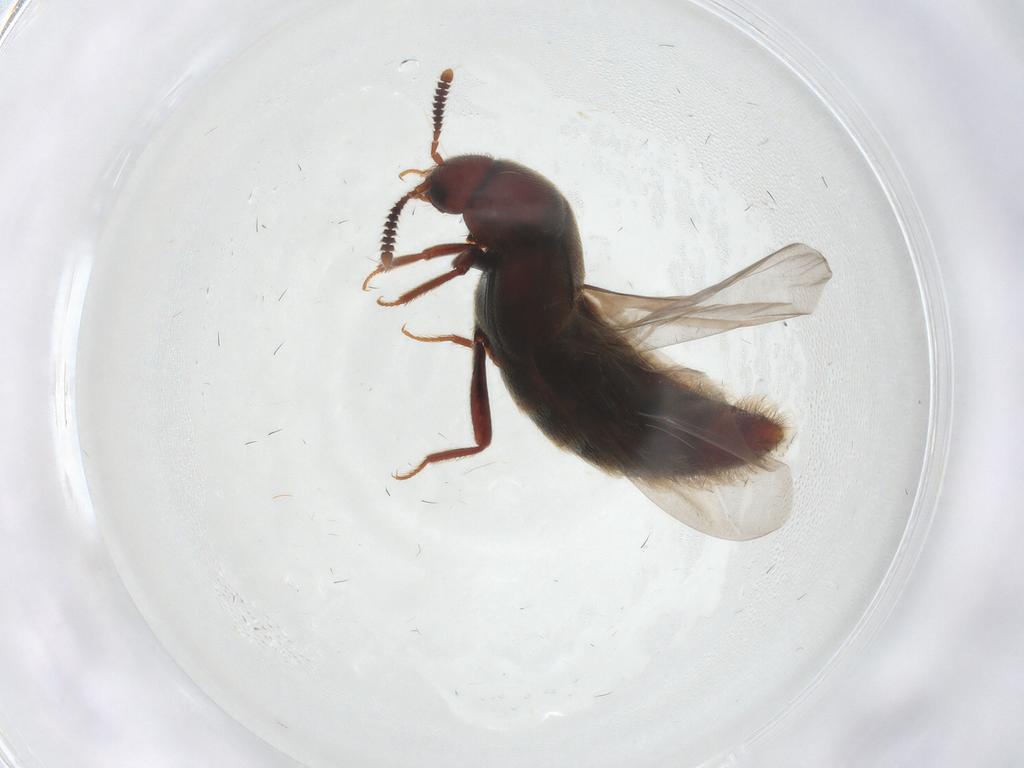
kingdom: Animalia
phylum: Arthropoda
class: Insecta
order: Coleoptera
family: Staphylinidae
